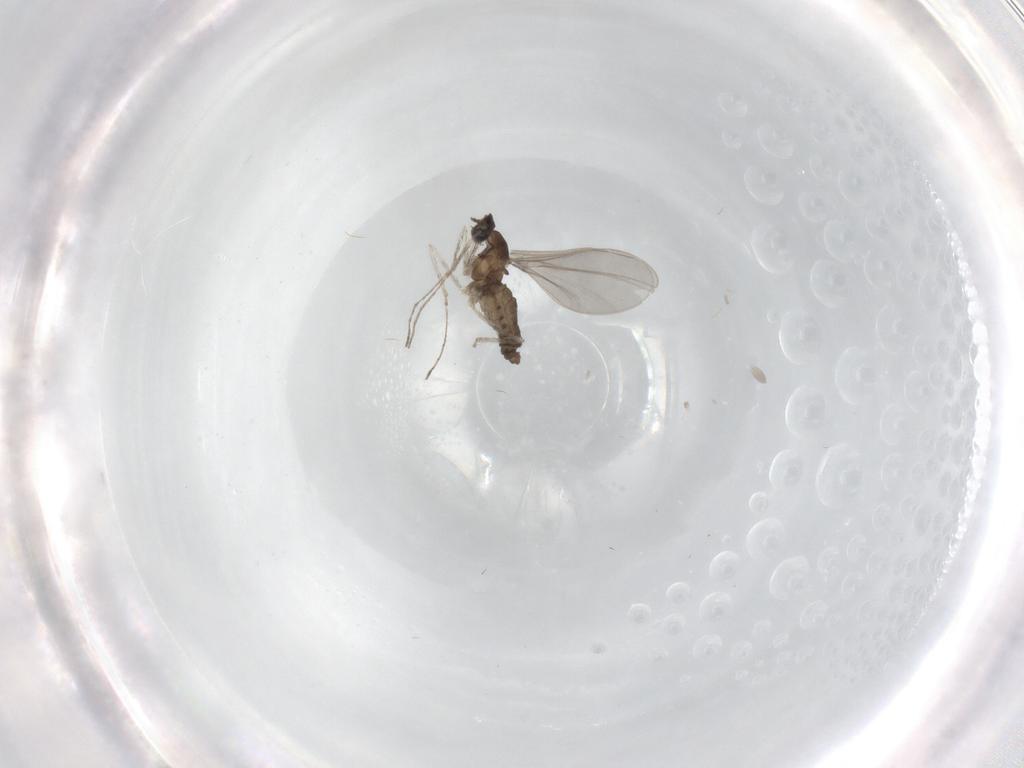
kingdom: Animalia
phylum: Arthropoda
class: Insecta
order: Diptera
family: Cecidomyiidae
